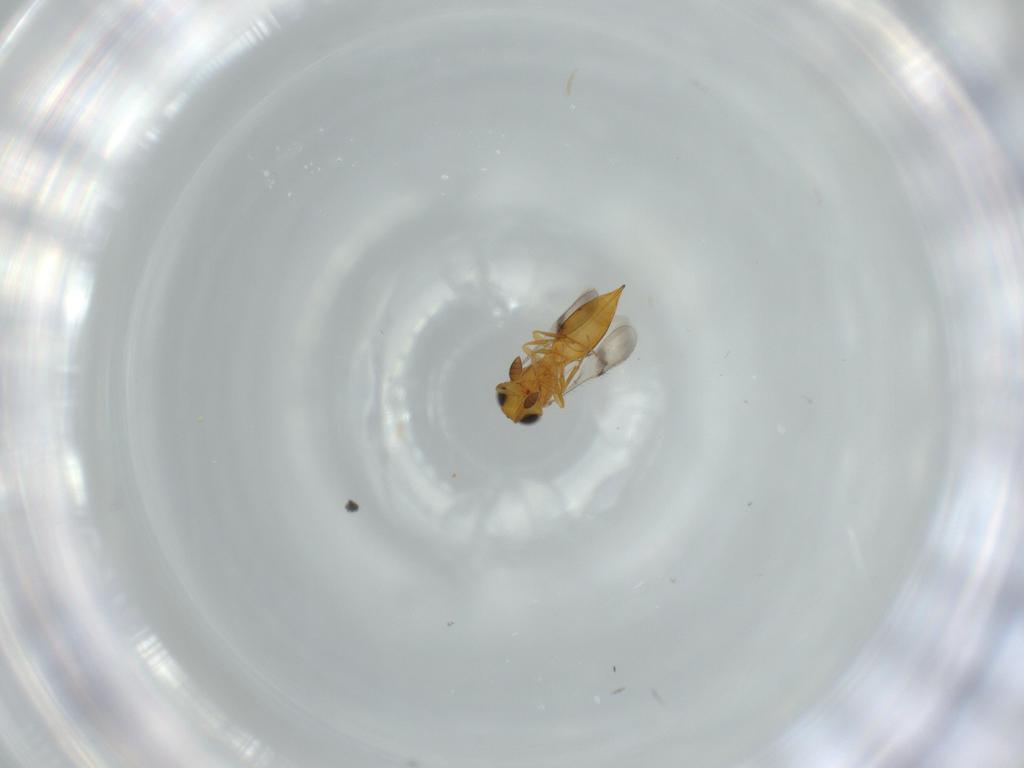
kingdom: Animalia
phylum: Arthropoda
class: Insecta
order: Hymenoptera
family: Scelionidae
